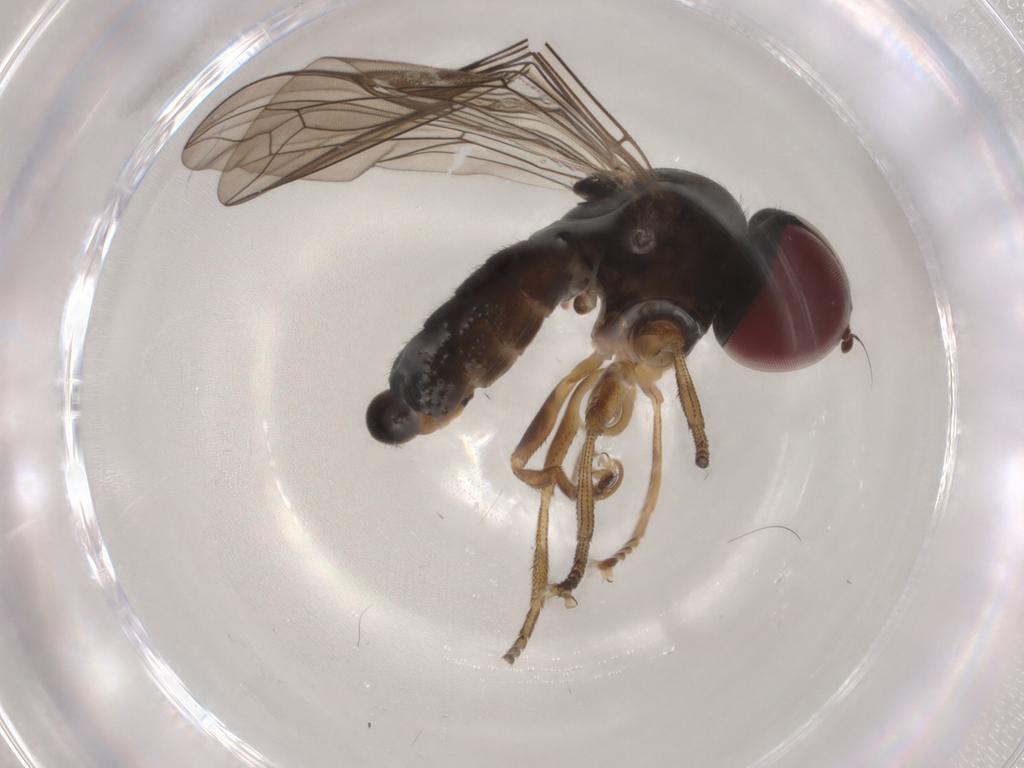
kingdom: Animalia
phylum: Arthropoda
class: Insecta
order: Diptera
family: Pipunculidae
